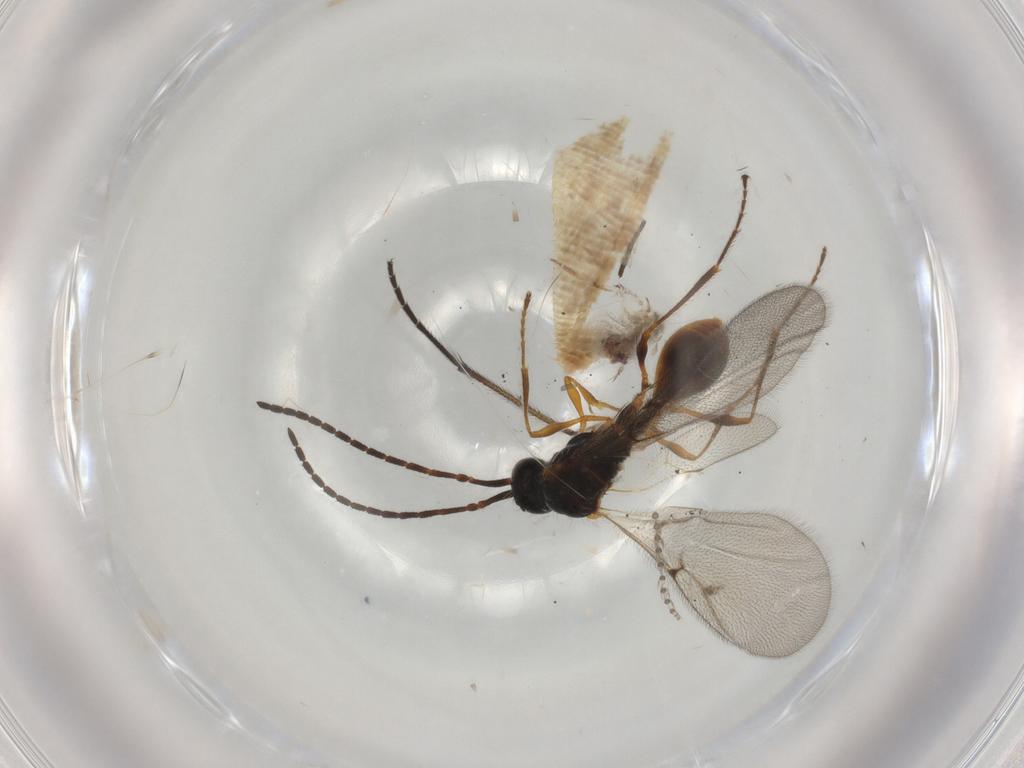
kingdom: Animalia
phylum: Arthropoda
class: Insecta
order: Hymenoptera
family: Diapriidae
